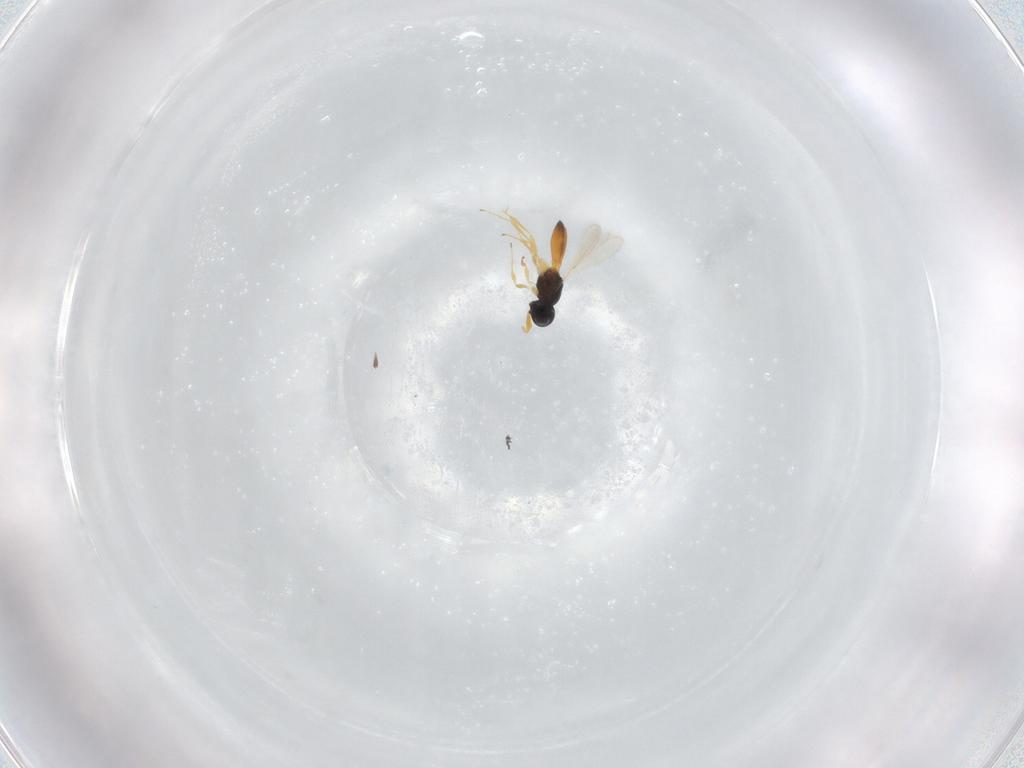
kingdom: Animalia
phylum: Arthropoda
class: Insecta
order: Hymenoptera
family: Scelionidae
